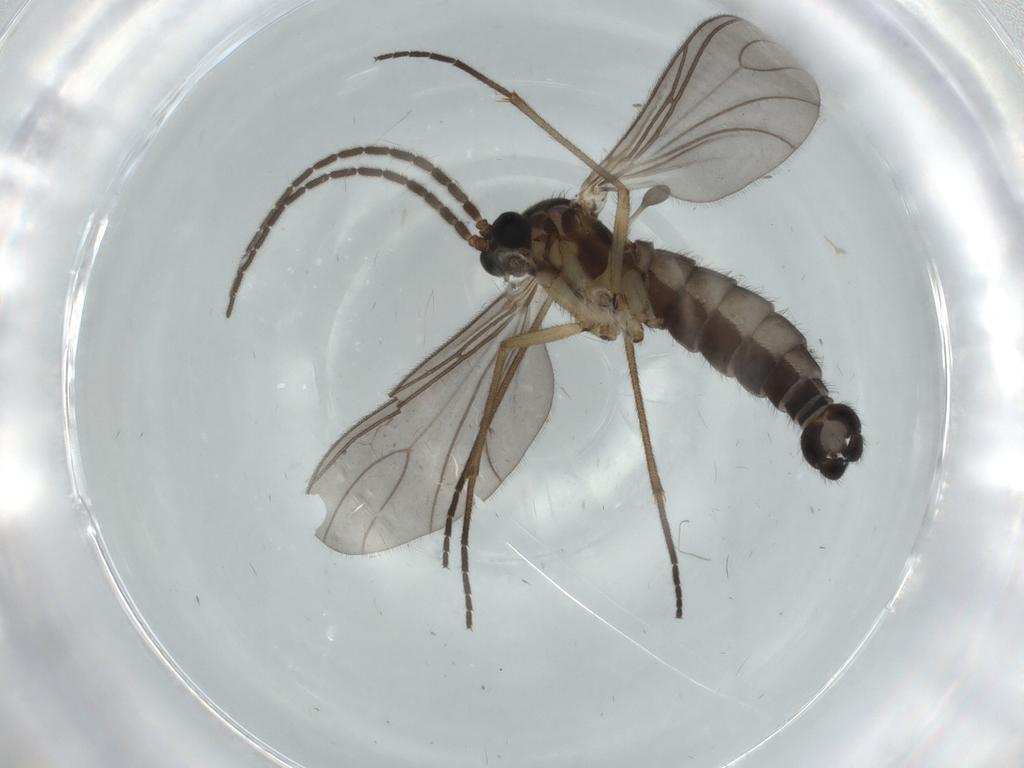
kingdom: Animalia
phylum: Arthropoda
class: Insecta
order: Diptera
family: Sciaridae
